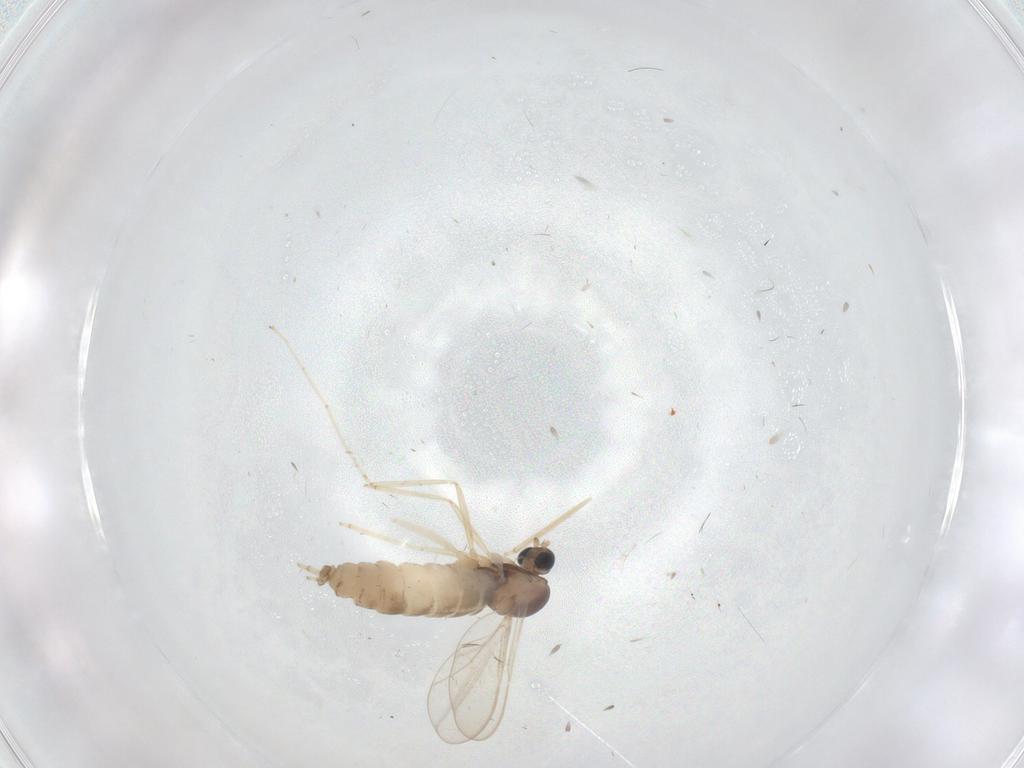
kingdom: Animalia
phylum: Arthropoda
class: Insecta
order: Diptera
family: Cecidomyiidae
